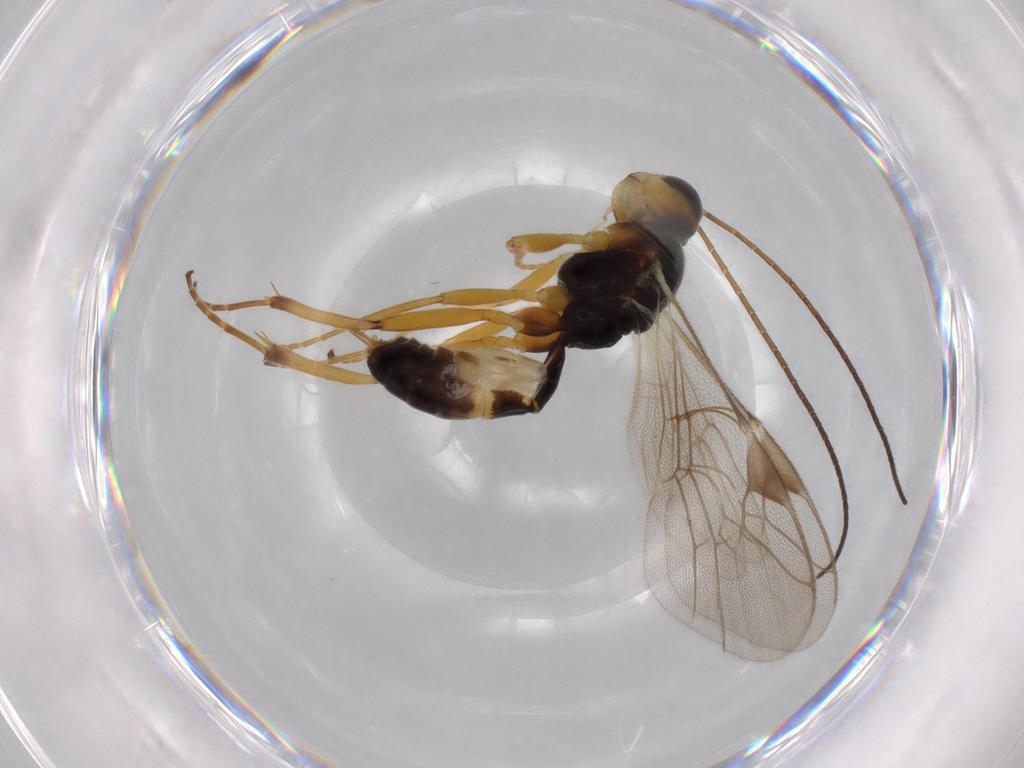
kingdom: Animalia
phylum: Arthropoda
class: Insecta
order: Hymenoptera
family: Ichneumonidae
